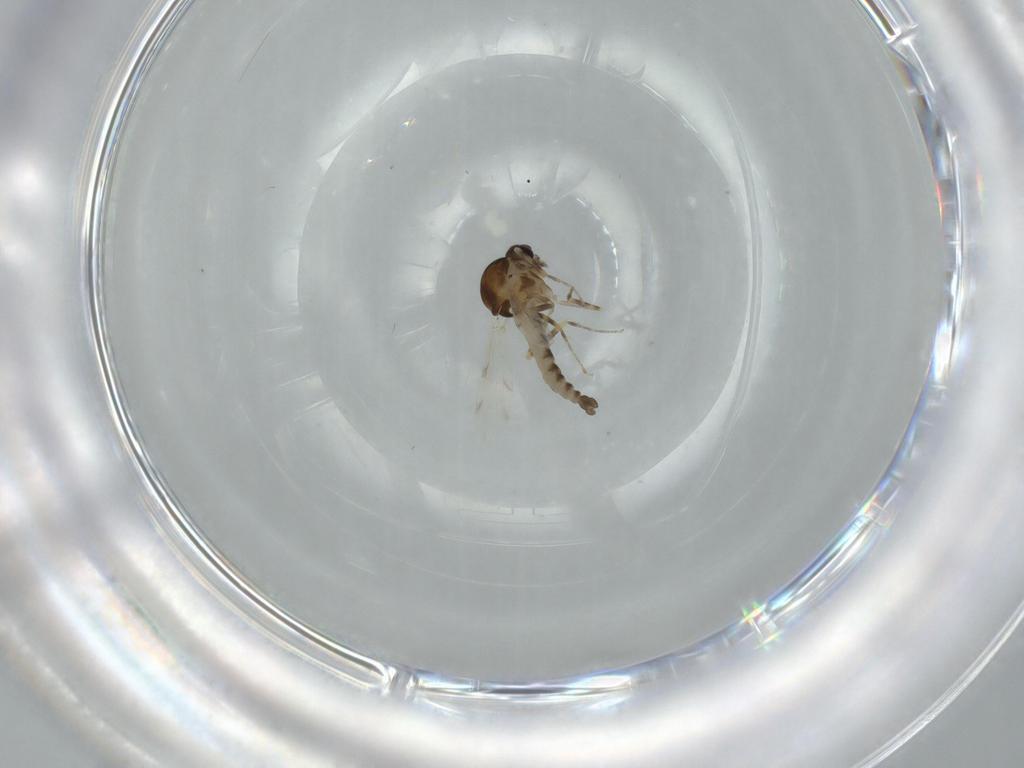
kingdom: Animalia
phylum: Arthropoda
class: Insecta
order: Diptera
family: Ceratopogonidae
